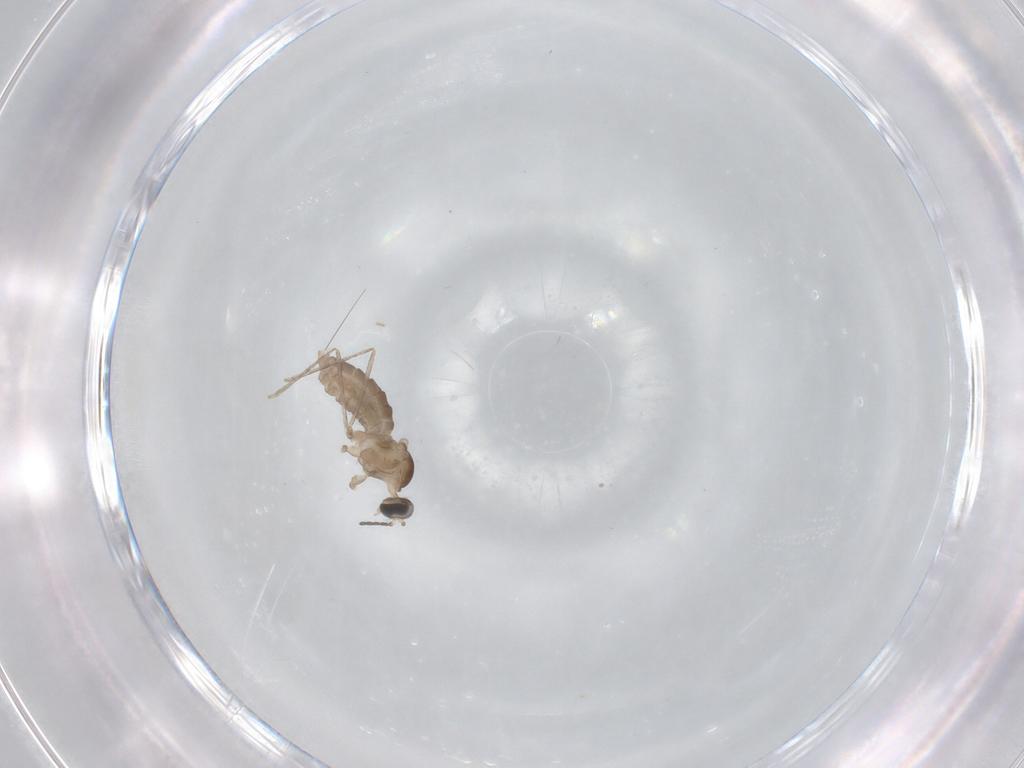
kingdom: Animalia
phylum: Arthropoda
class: Insecta
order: Diptera
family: Cecidomyiidae
